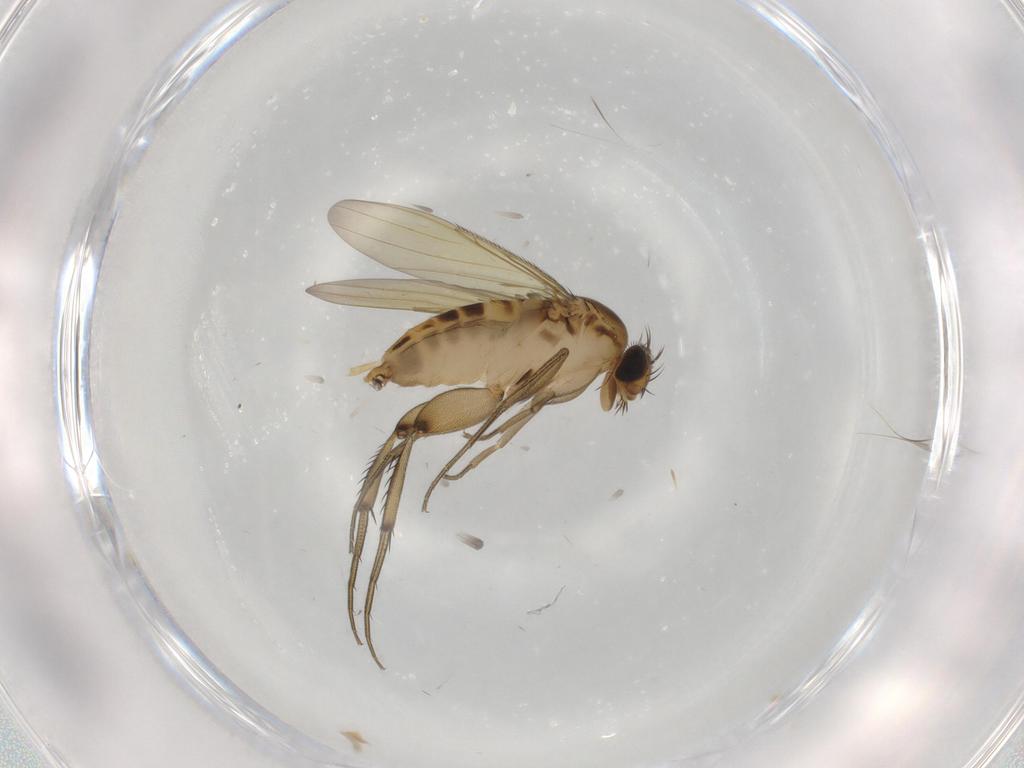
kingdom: Animalia
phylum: Arthropoda
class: Insecta
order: Diptera
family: Phoridae
